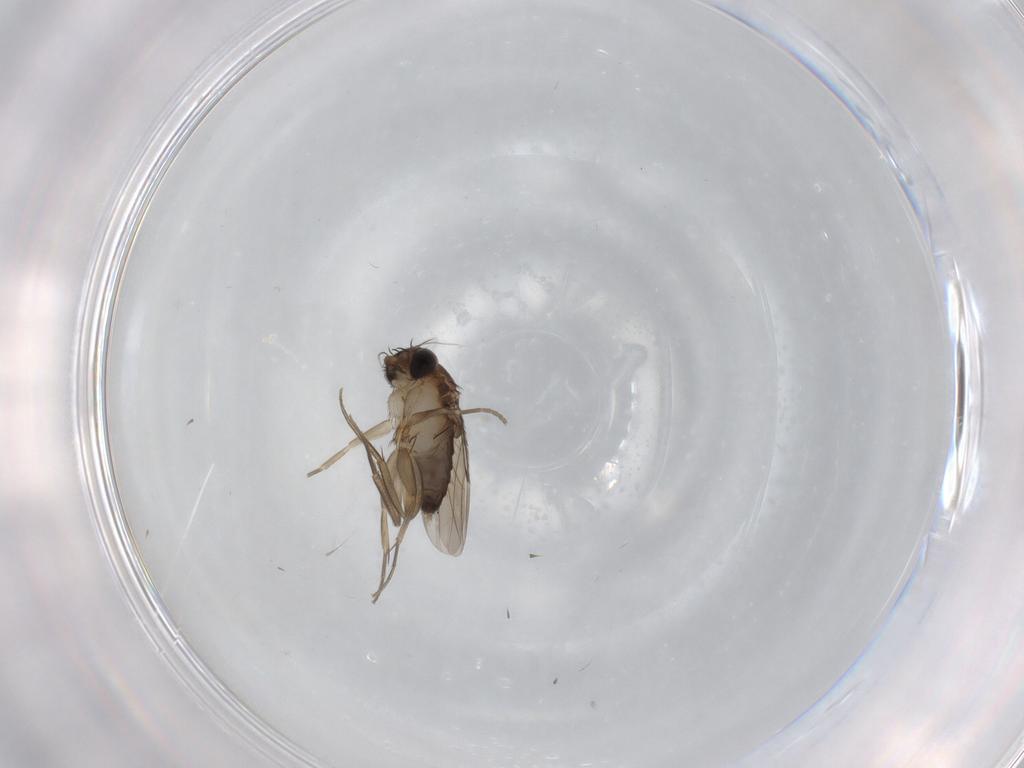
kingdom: Animalia
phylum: Arthropoda
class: Insecta
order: Diptera
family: Phoridae
